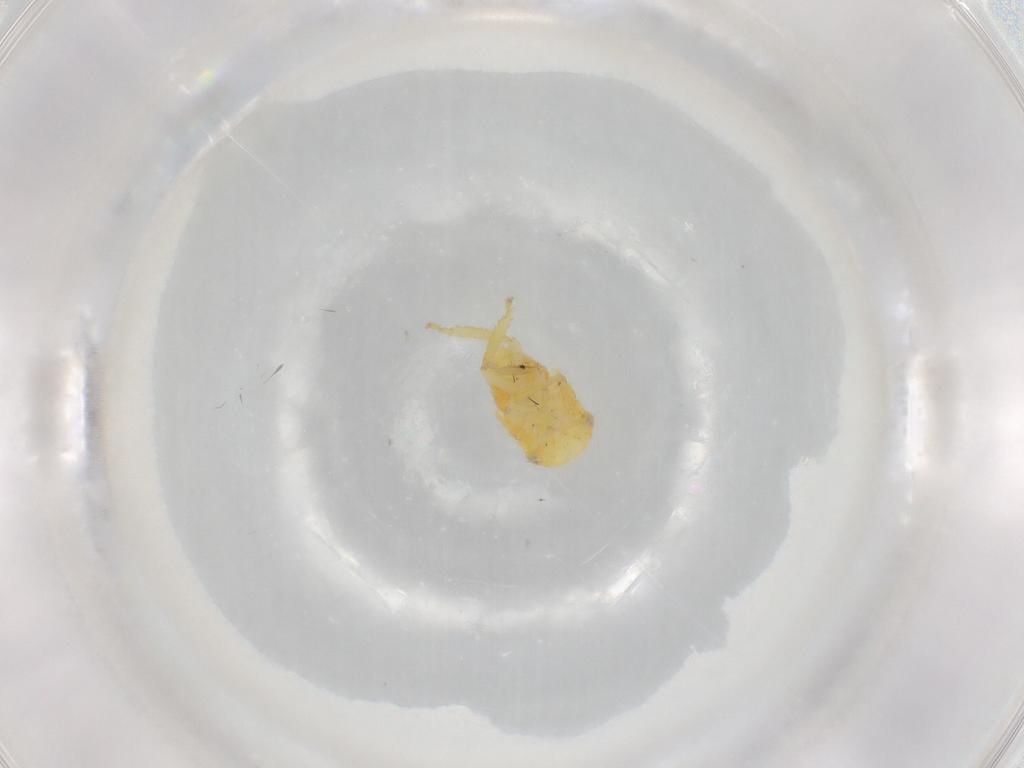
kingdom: Animalia
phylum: Arthropoda
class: Insecta
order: Hemiptera
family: Cicadellidae
